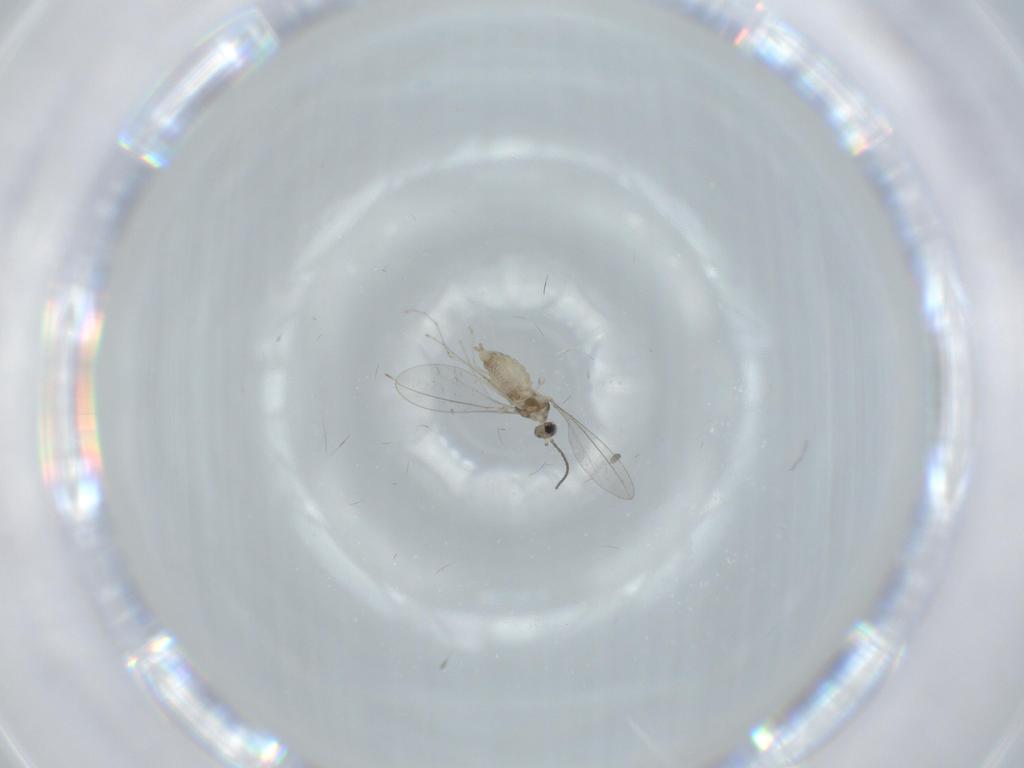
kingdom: Animalia
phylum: Arthropoda
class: Insecta
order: Diptera
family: Cecidomyiidae
